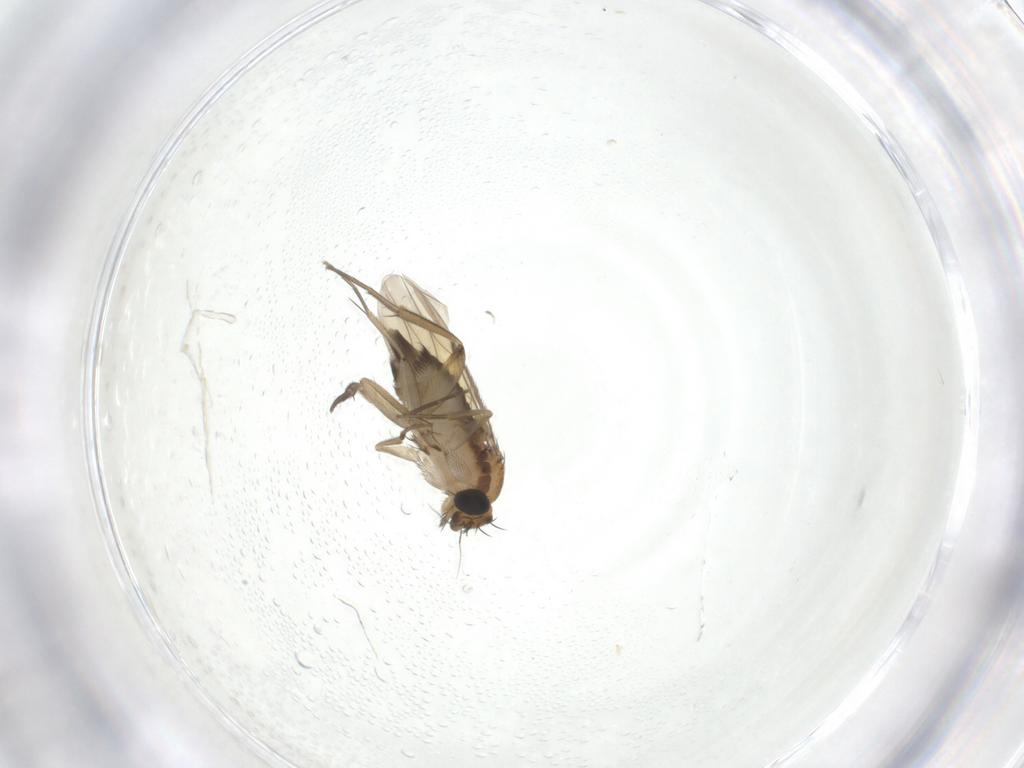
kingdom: Animalia
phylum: Arthropoda
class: Insecta
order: Diptera
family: Phoridae
